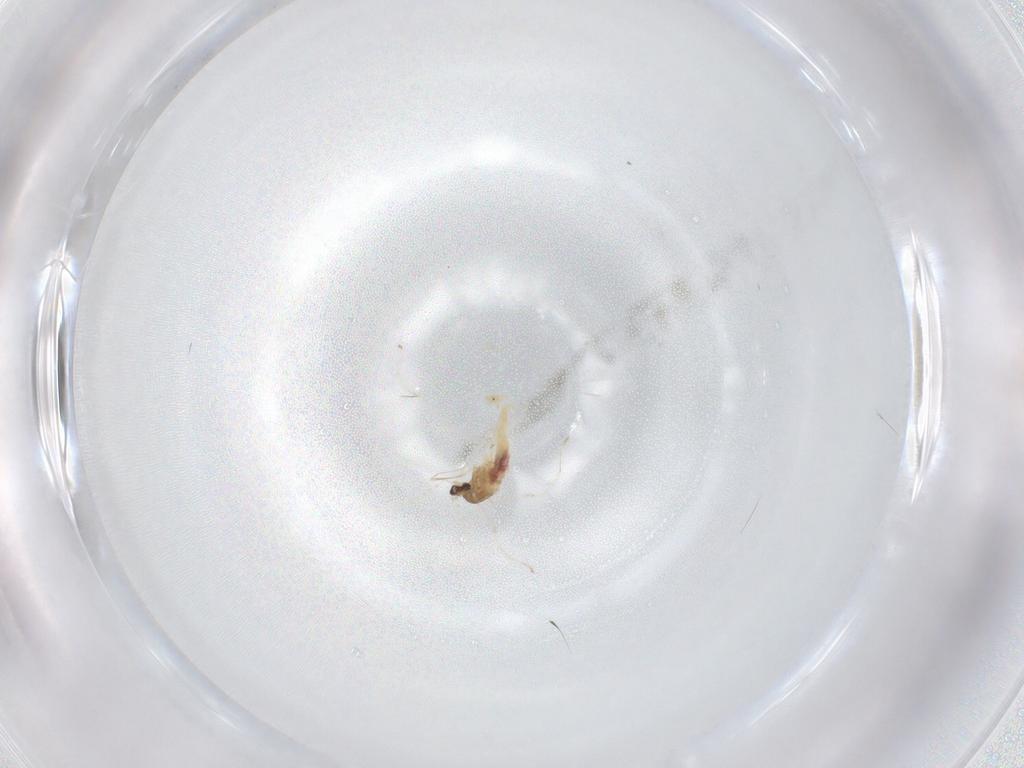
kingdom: Animalia
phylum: Arthropoda
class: Insecta
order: Diptera
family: Cecidomyiidae
